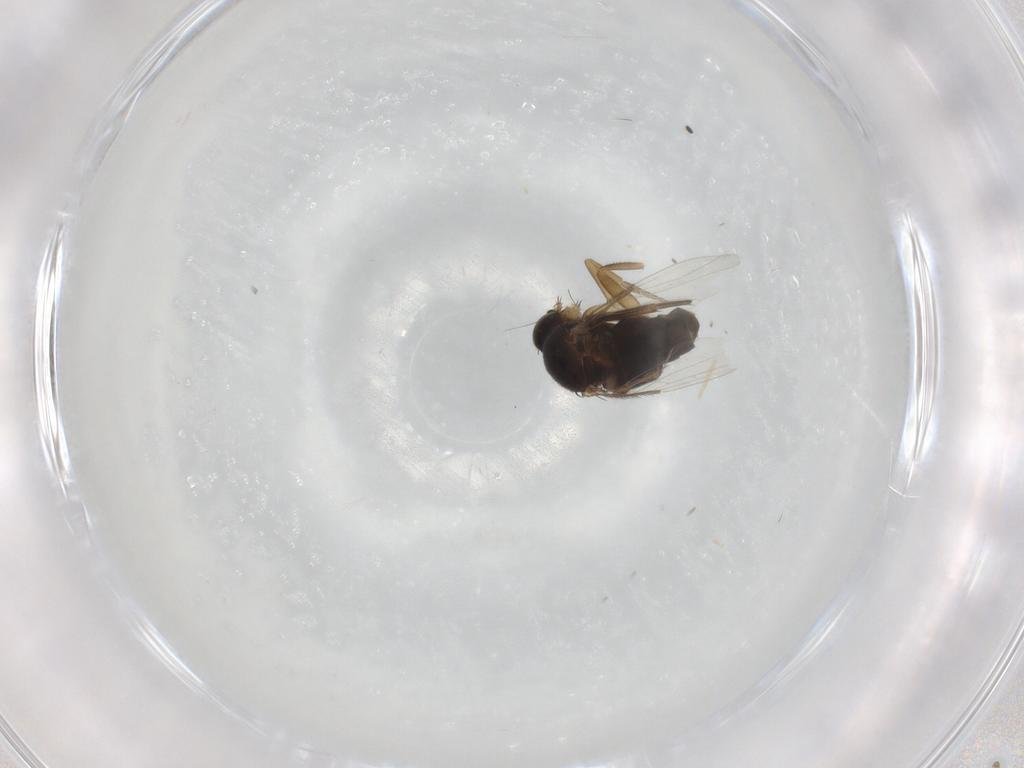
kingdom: Animalia
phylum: Arthropoda
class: Insecta
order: Diptera
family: Phoridae
